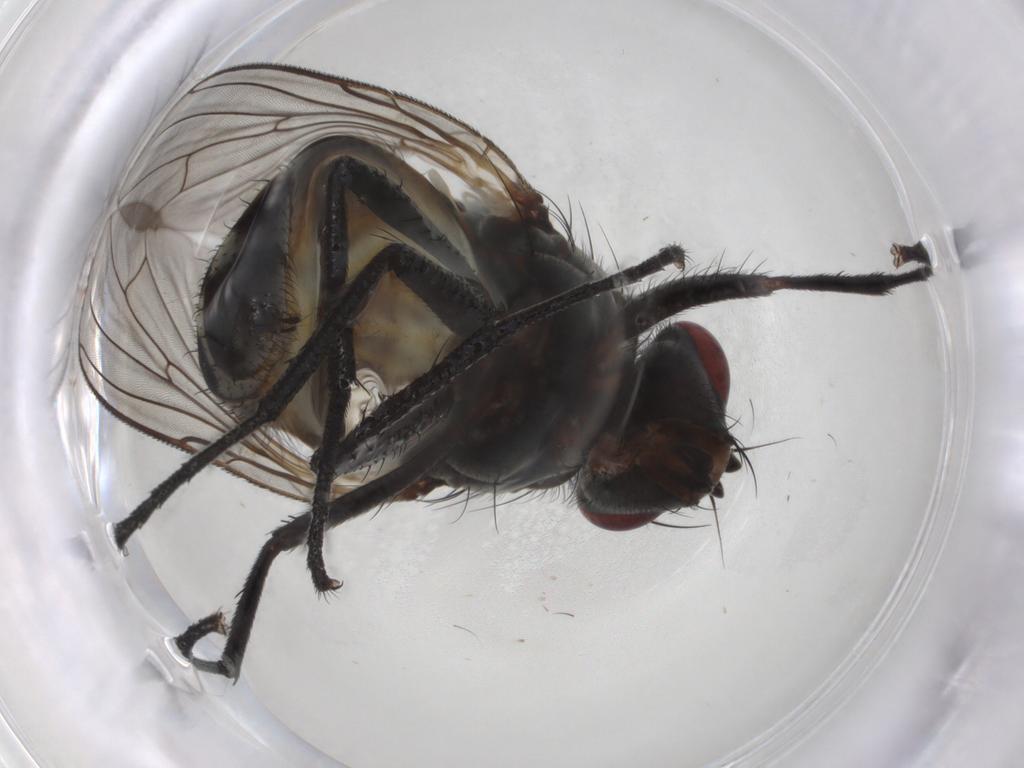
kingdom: Animalia
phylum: Arthropoda
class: Insecta
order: Diptera
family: Anthomyiidae
